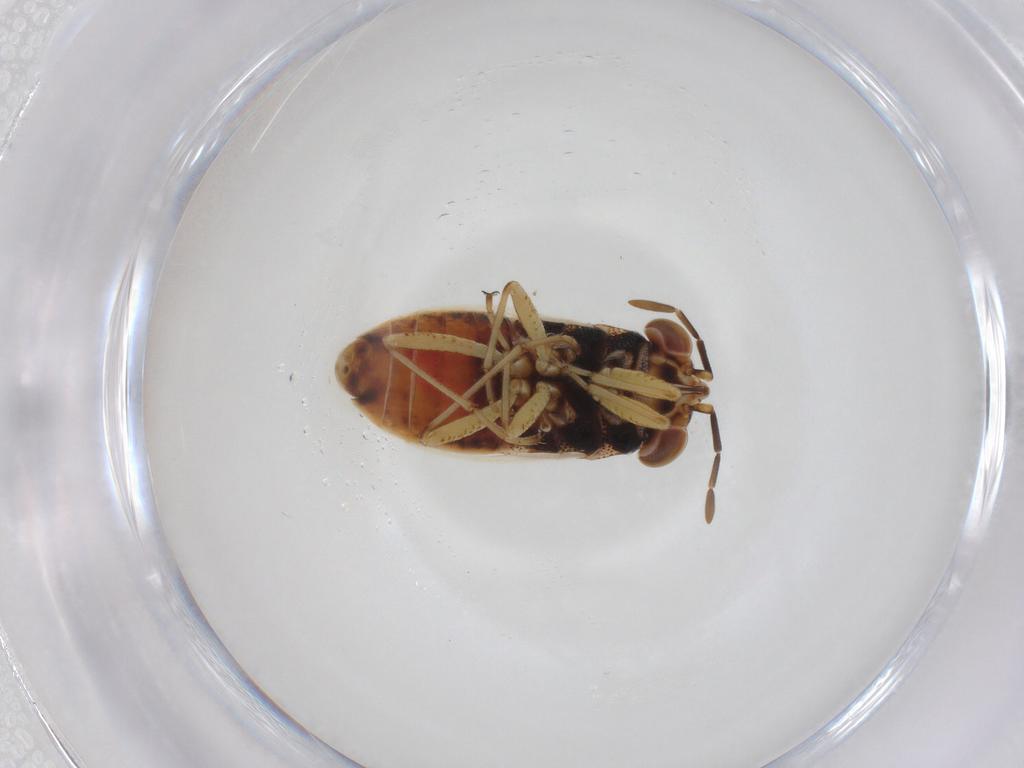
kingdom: Animalia
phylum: Arthropoda
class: Insecta
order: Hemiptera
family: Geocoridae
